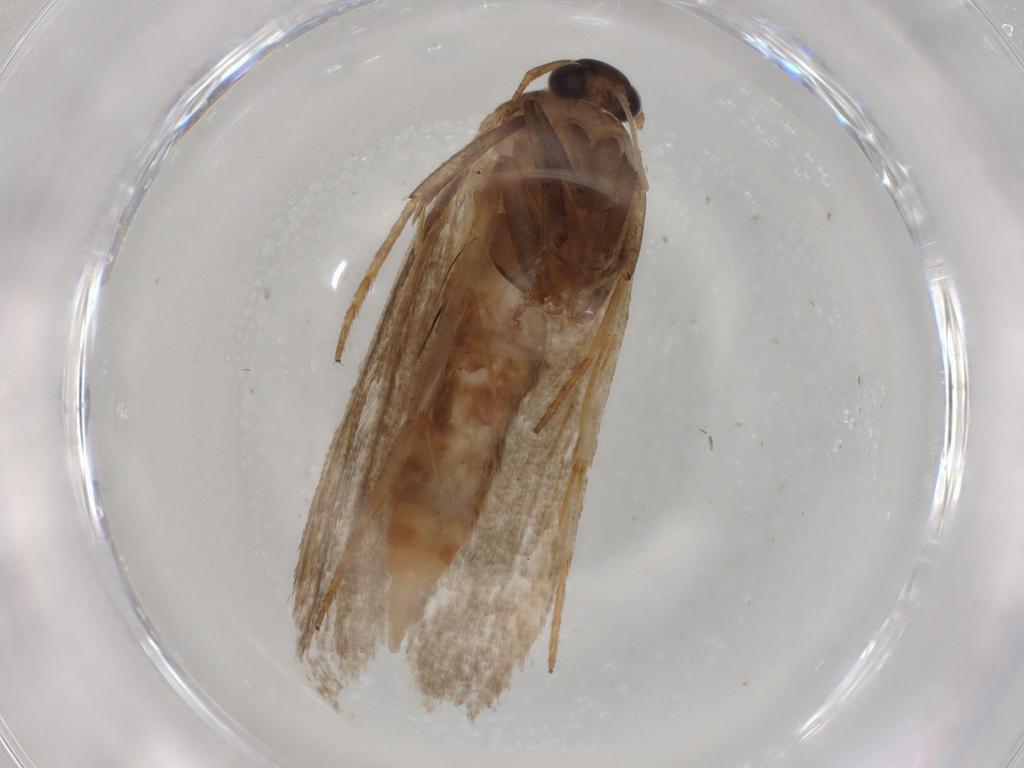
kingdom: Animalia
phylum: Arthropoda
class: Insecta
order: Lepidoptera
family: Blastobasidae
